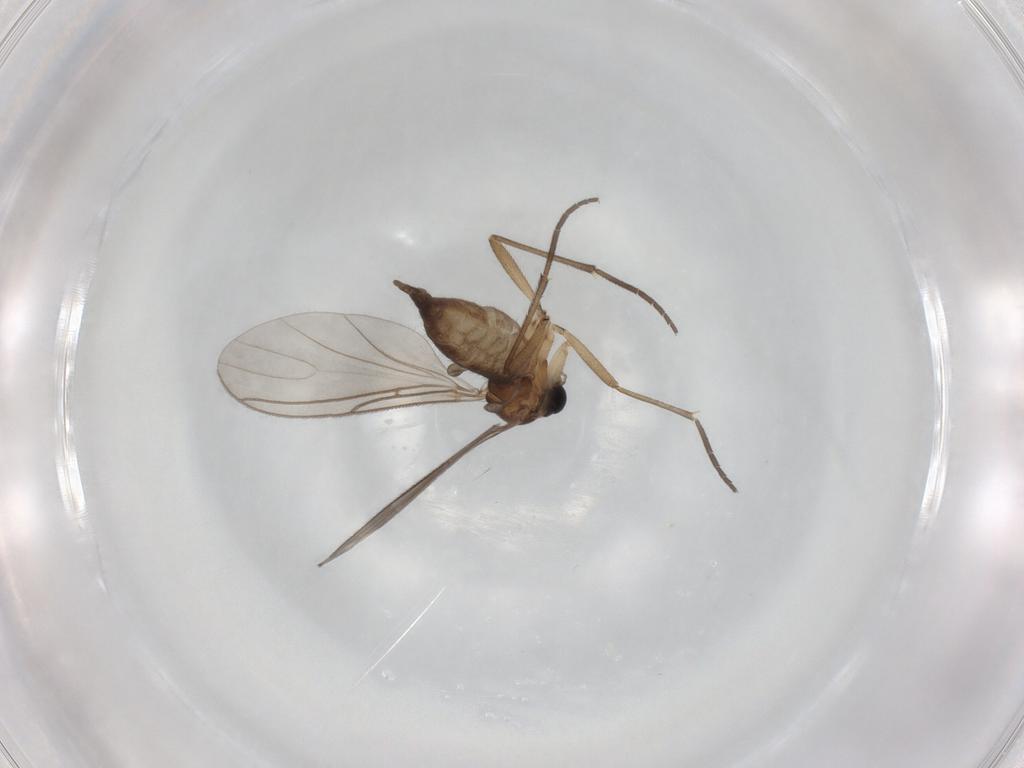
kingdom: Animalia
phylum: Arthropoda
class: Insecta
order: Diptera
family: Sciaridae
